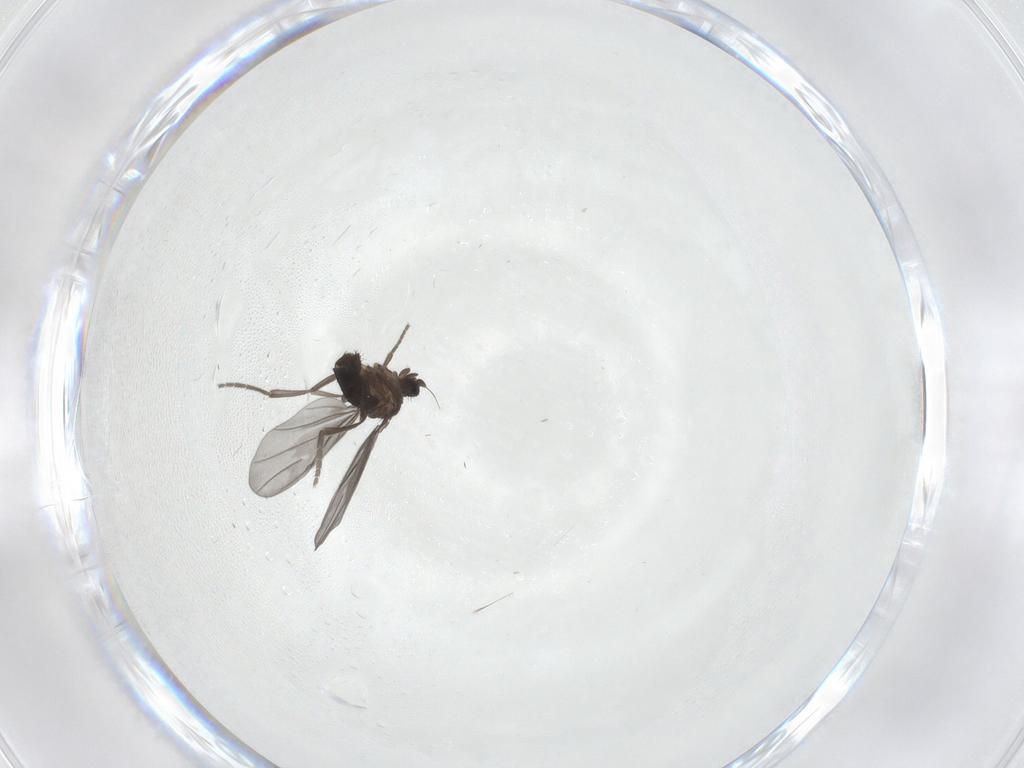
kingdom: Animalia
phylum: Arthropoda
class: Insecta
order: Diptera
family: Phoridae
